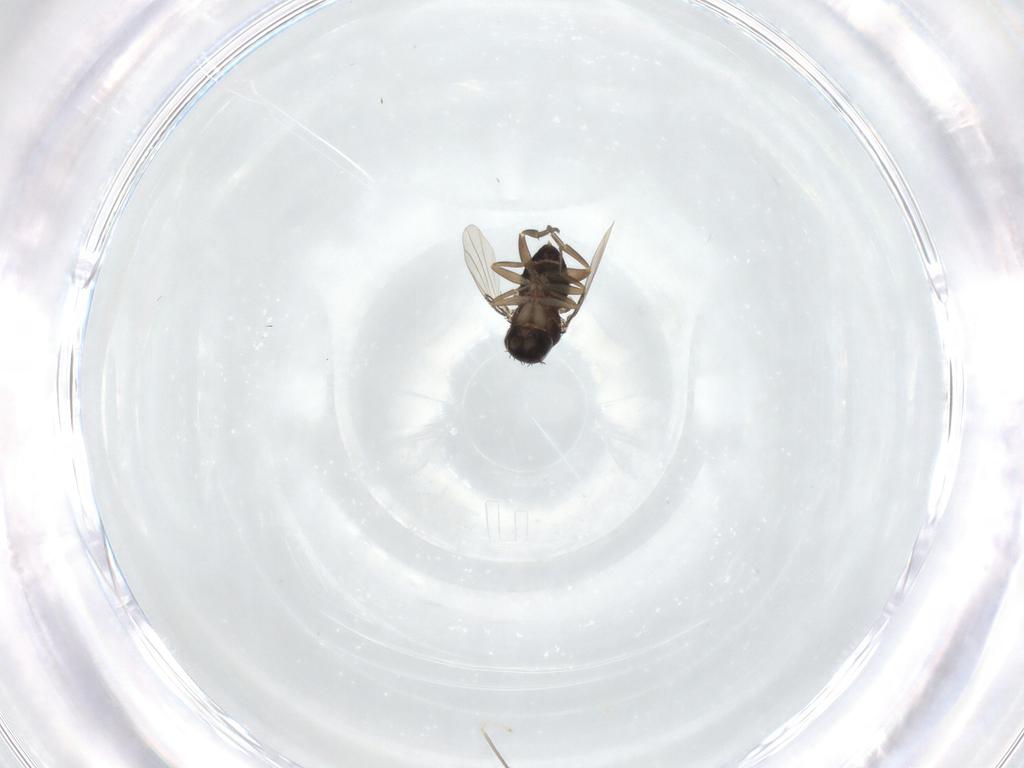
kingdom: Animalia
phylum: Arthropoda
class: Insecta
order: Diptera
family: Phoridae
